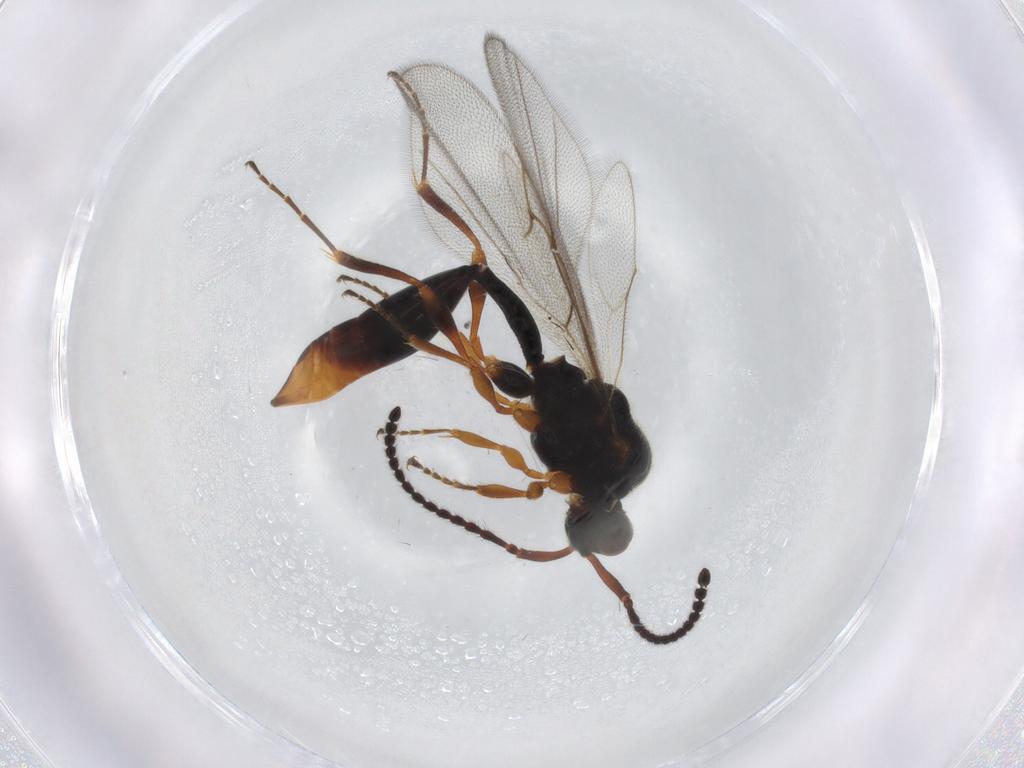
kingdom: Animalia
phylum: Arthropoda
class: Insecta
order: Hymenoptera
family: Diapriidae
